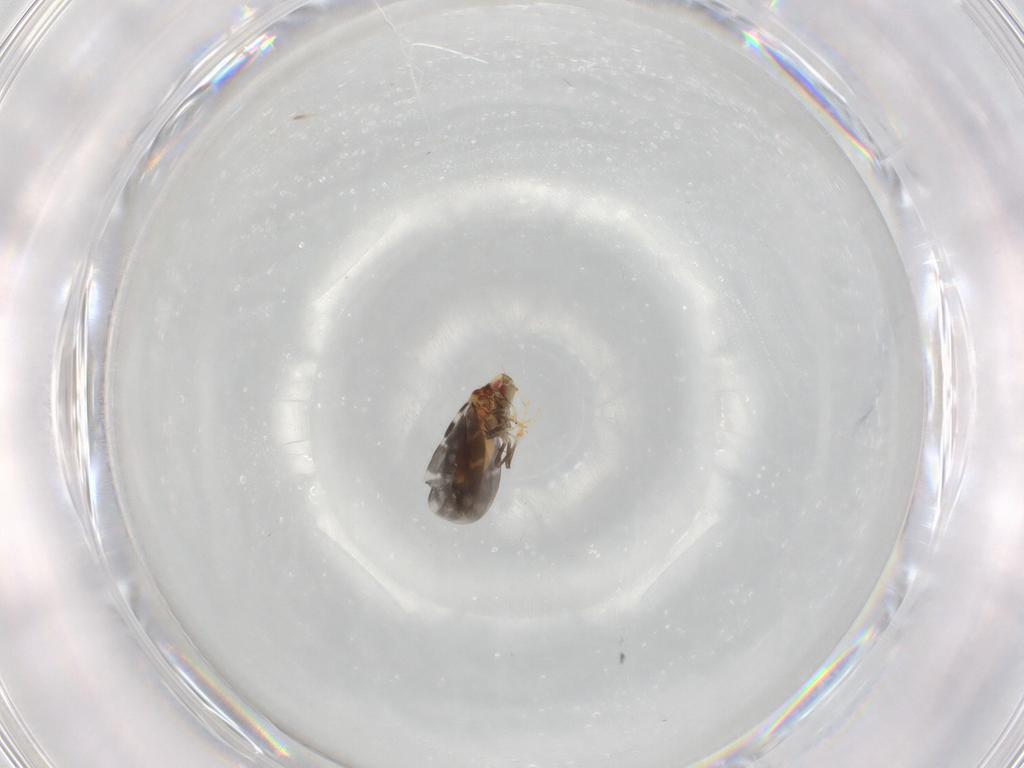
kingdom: Animalia
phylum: Arthropoda
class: Insecta
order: Hemiptera
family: Aleyrodidae
